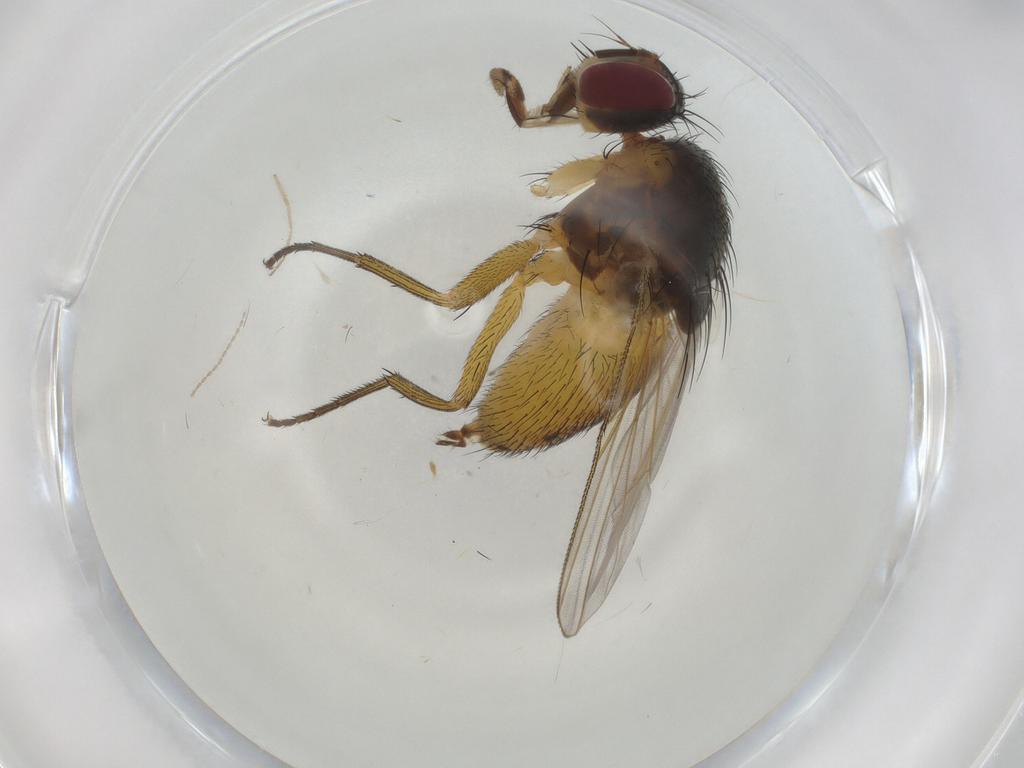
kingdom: Animalia
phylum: Arthropoda
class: Insecta
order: Diptera
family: Muscidae
